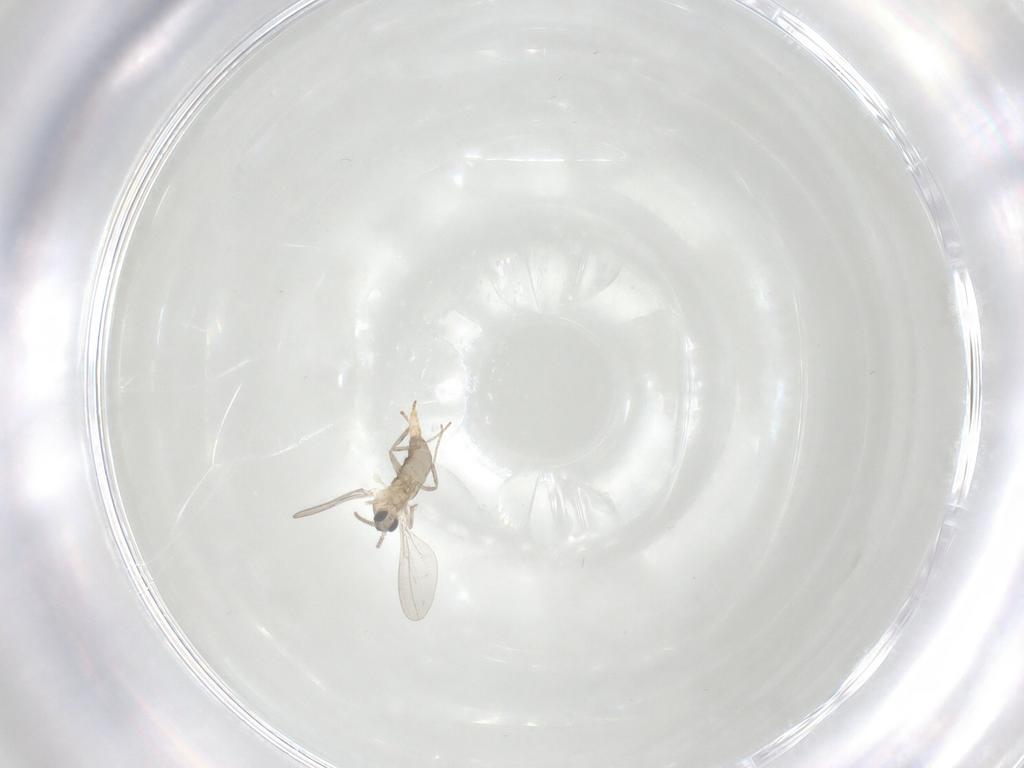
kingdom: Animalia
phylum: Arthropoda
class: Insecta
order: Diptera
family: Cecidomyiidae
